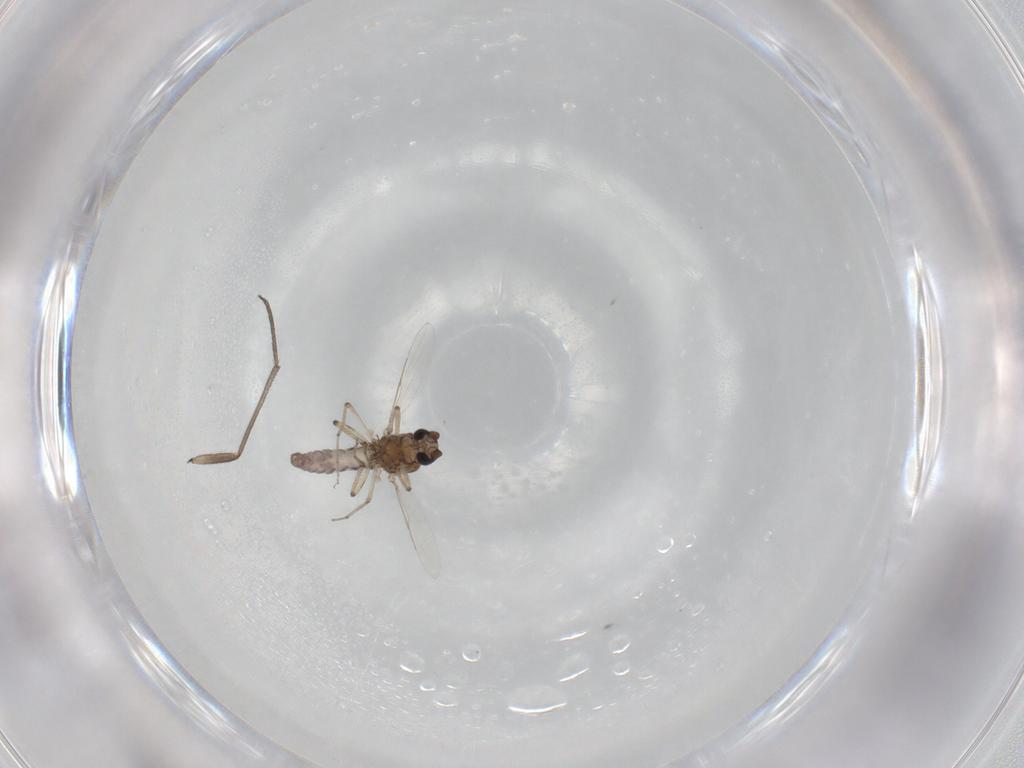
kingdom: Animalia
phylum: Arthropoda
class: Insecta
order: Diptera
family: Ceratopogonidae
